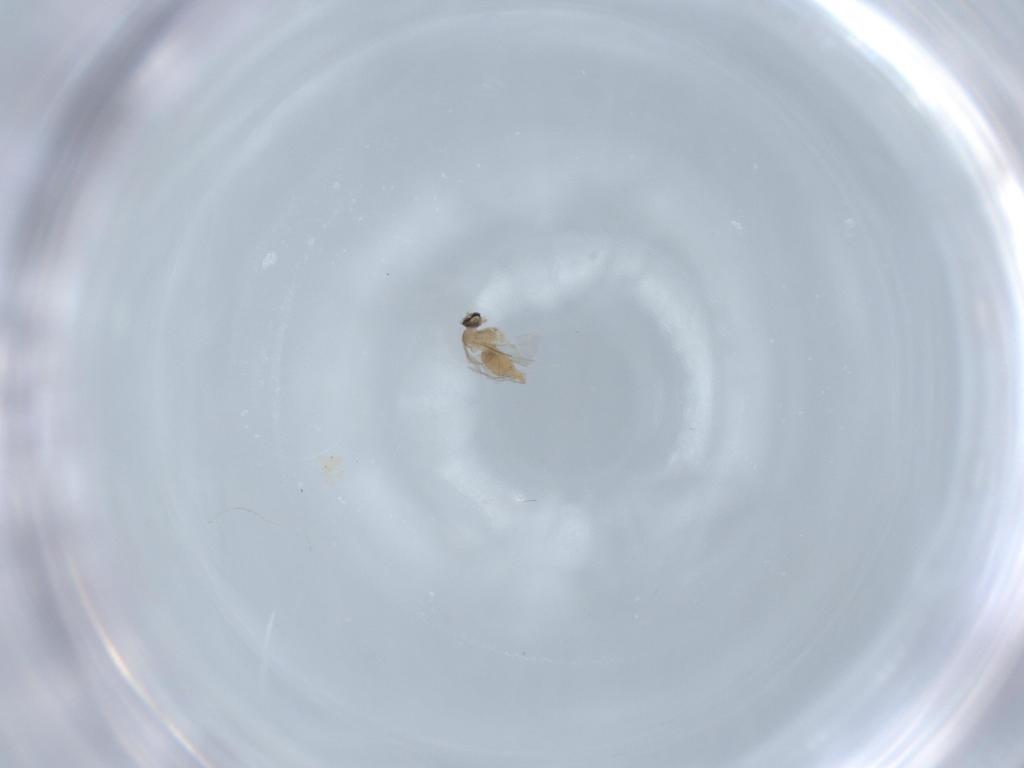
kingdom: Animalia
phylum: Arthropoda
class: Insecta
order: Diptera
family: Cecidomyiidae
